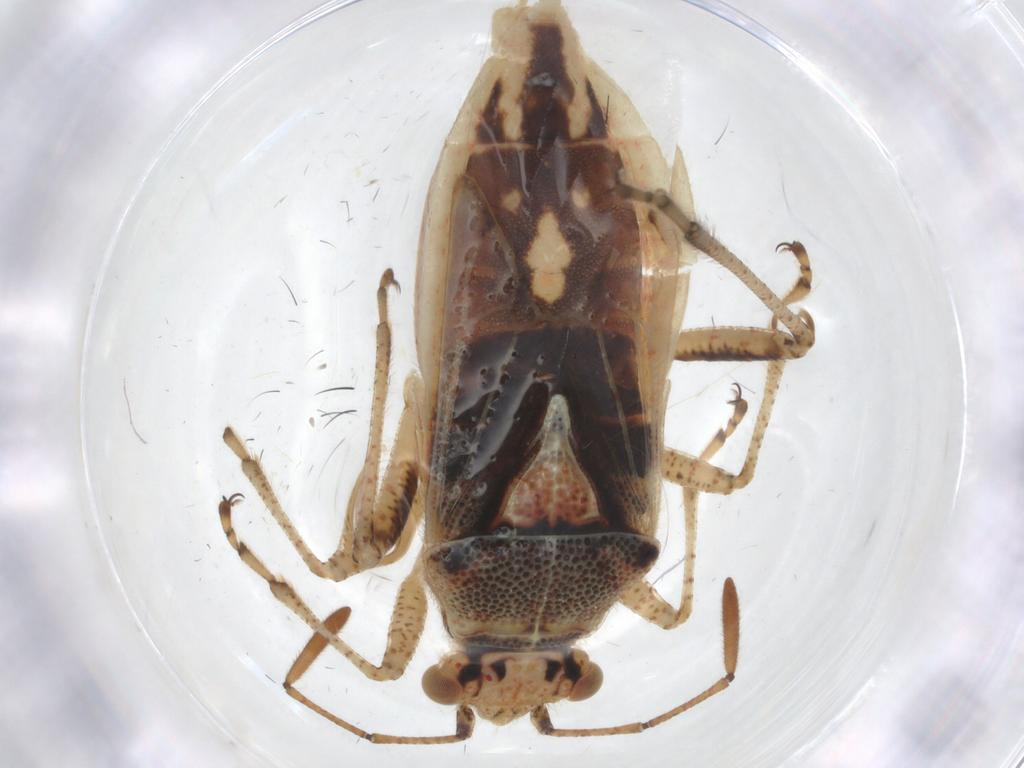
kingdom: Animalia
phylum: Arthropoda
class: Insecta
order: Hemiptera
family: Rhopalidae
